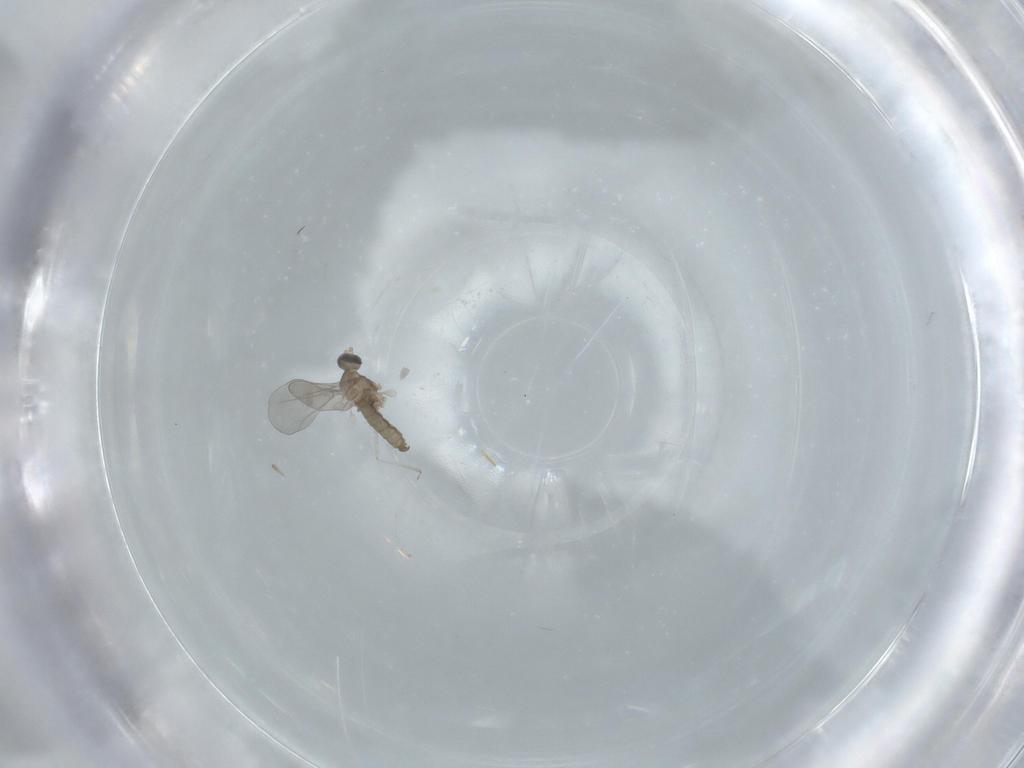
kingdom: Animalia
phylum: Arthropoda
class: Insecta
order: Diptera
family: Cecidomyiidae
